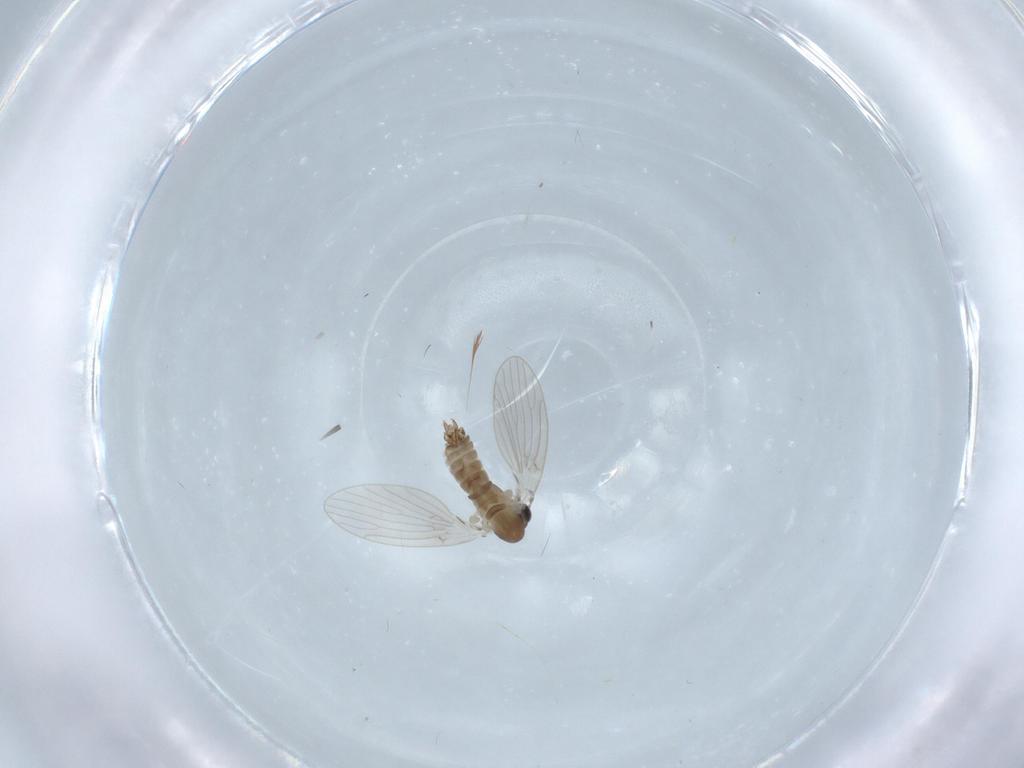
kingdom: Animalia
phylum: Arthropoda
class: Insecta
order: Diptera
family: Psychodidae
